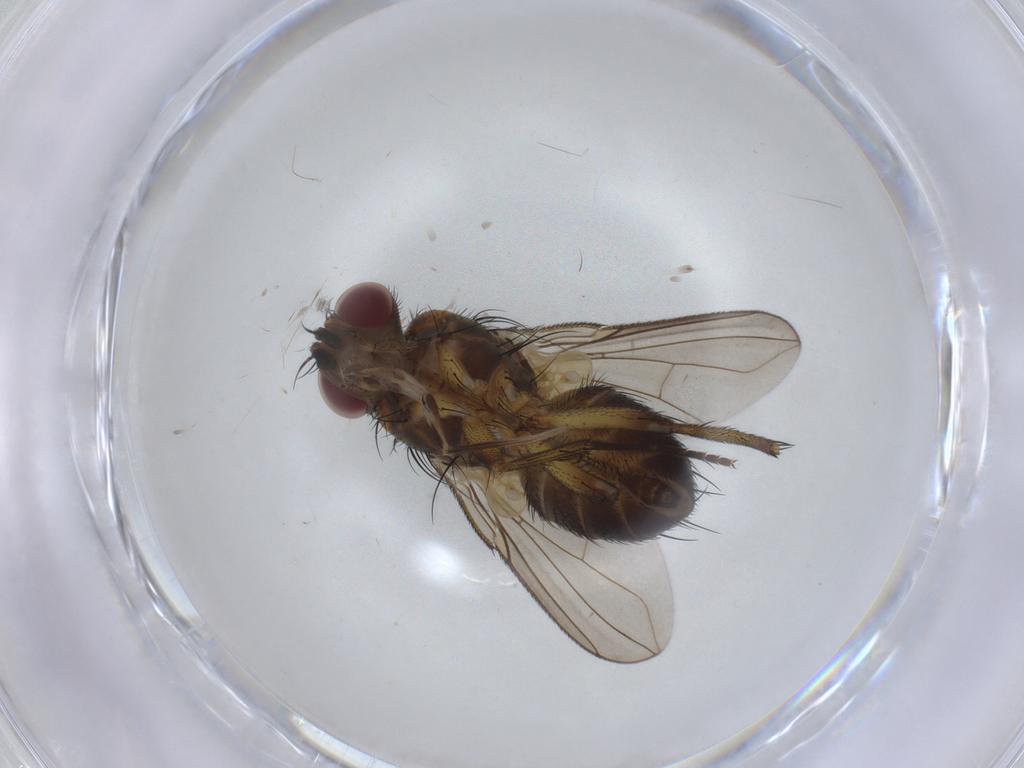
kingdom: Animalia
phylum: Arthropoda
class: Insecta
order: Diptera
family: Tachinidae
